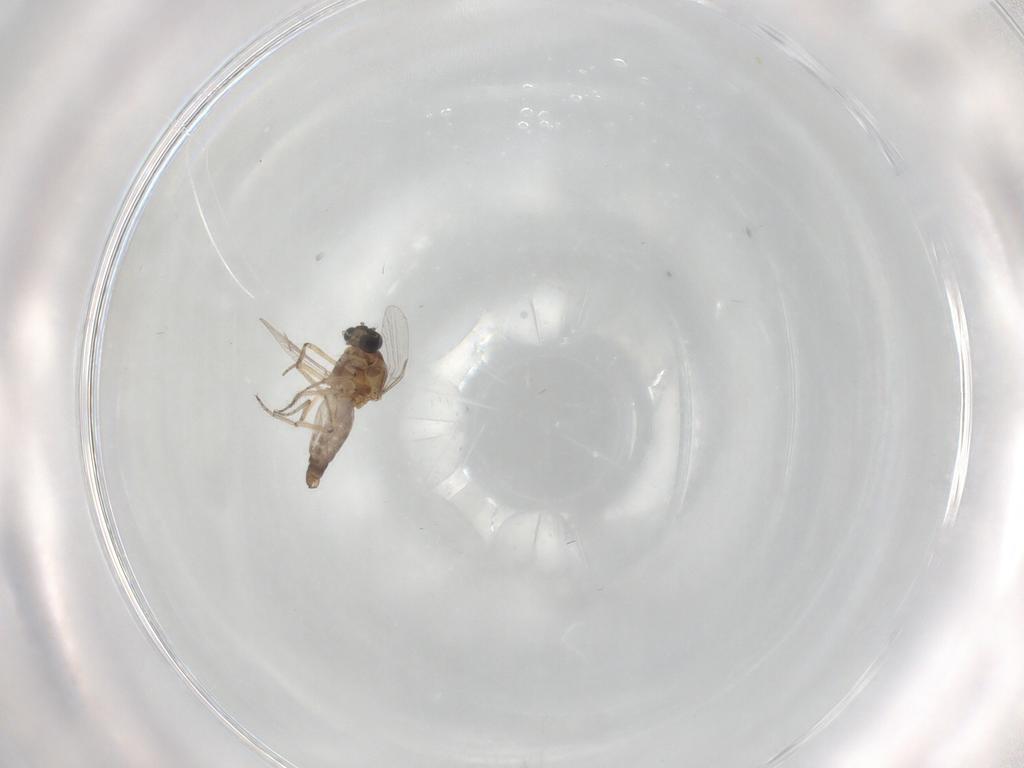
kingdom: Animalia
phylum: Arthropoda
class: Insecta
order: Diptera
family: Ceratopogonidae
